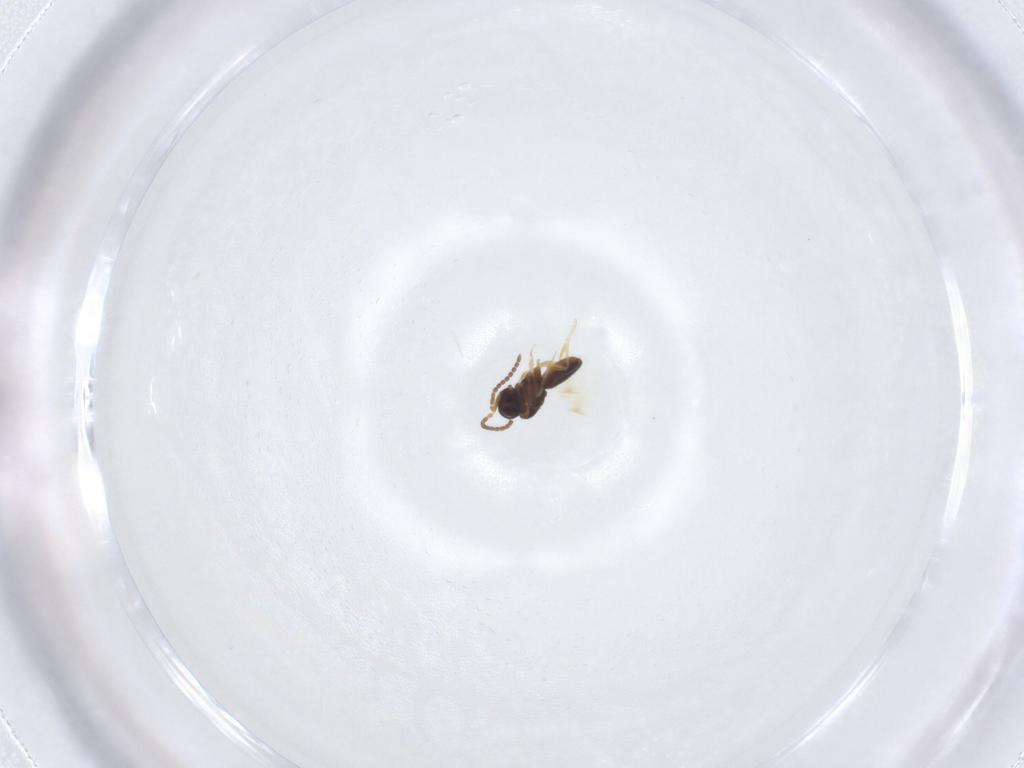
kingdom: Animalia
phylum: Arthropoda
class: Insecta
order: Hymenoptera
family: Scelionidae
